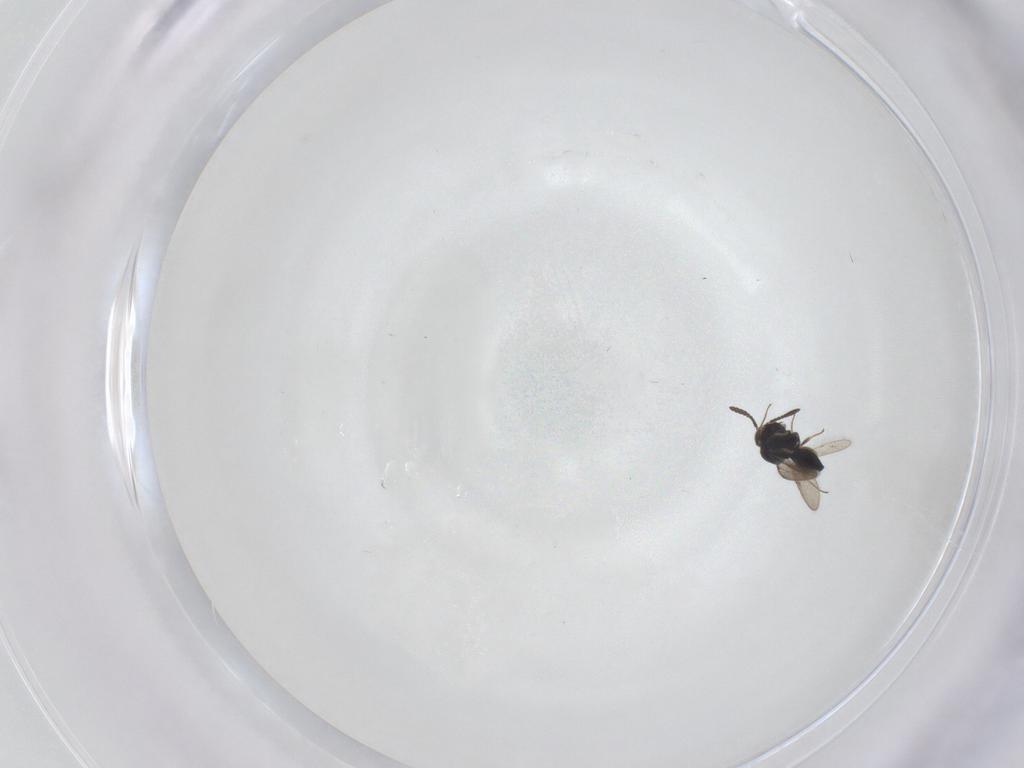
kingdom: Animalia
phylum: Arthropoda
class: Insecta
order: Hymenoptera
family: Scelionidae
